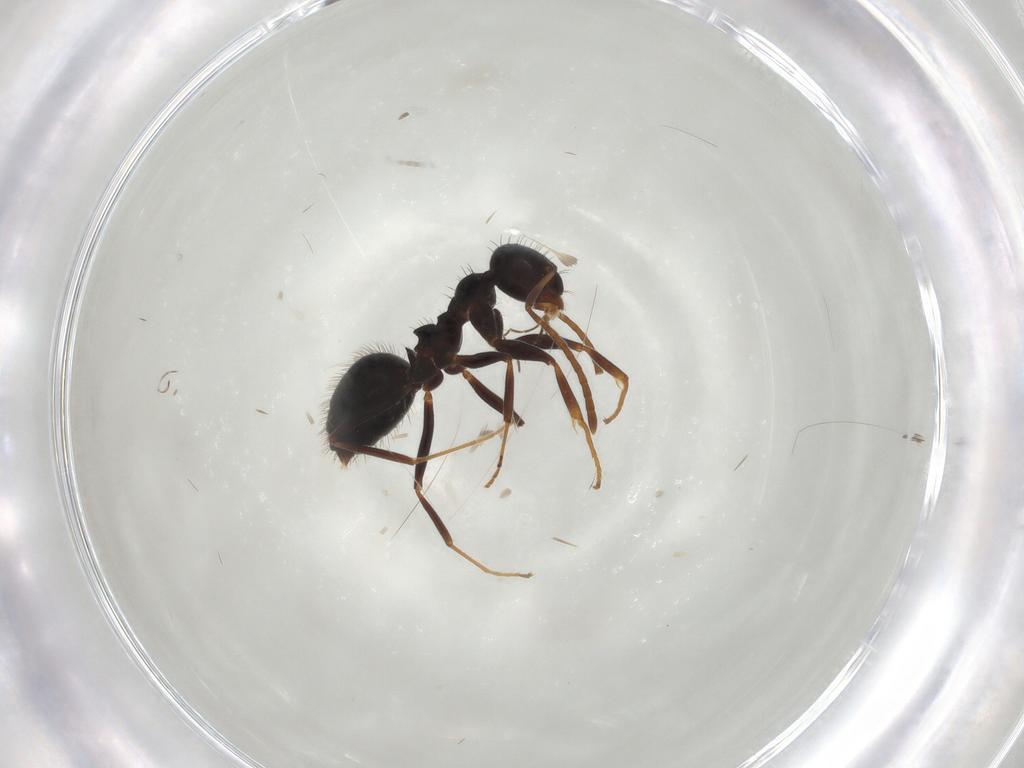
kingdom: Animalia
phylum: Arthropoda
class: Insecta
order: Hymenoptera
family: Formicidae
